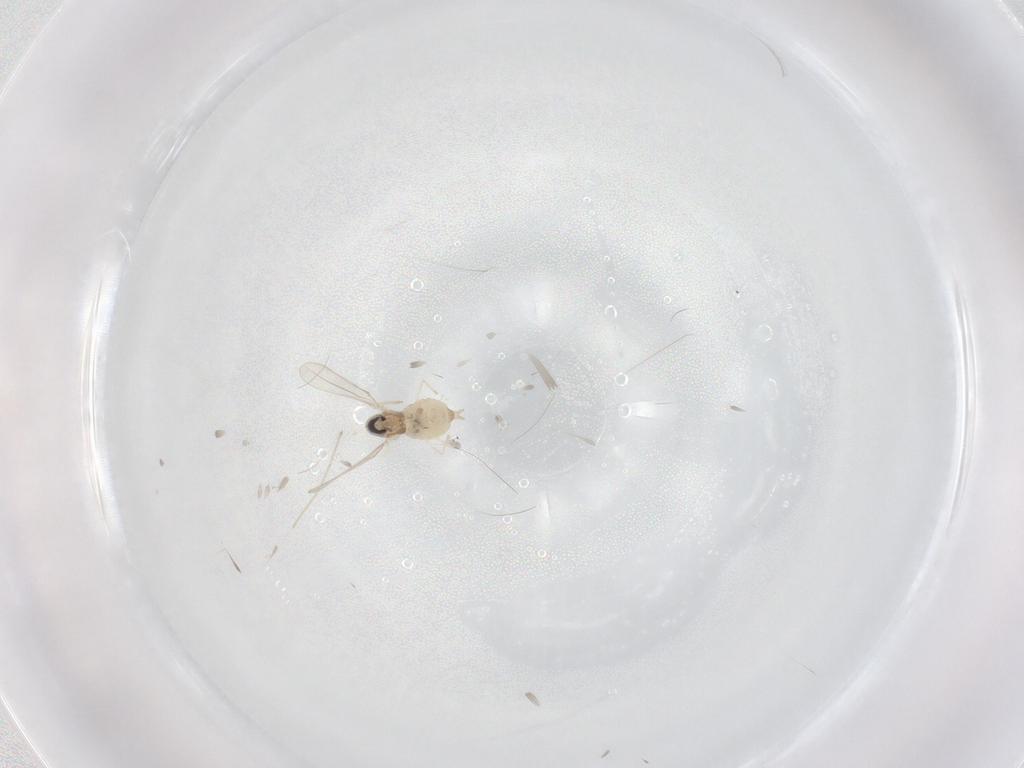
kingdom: Animalia
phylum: Arthropoda
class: Insecta
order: Diptera
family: Cecidomyiidae
